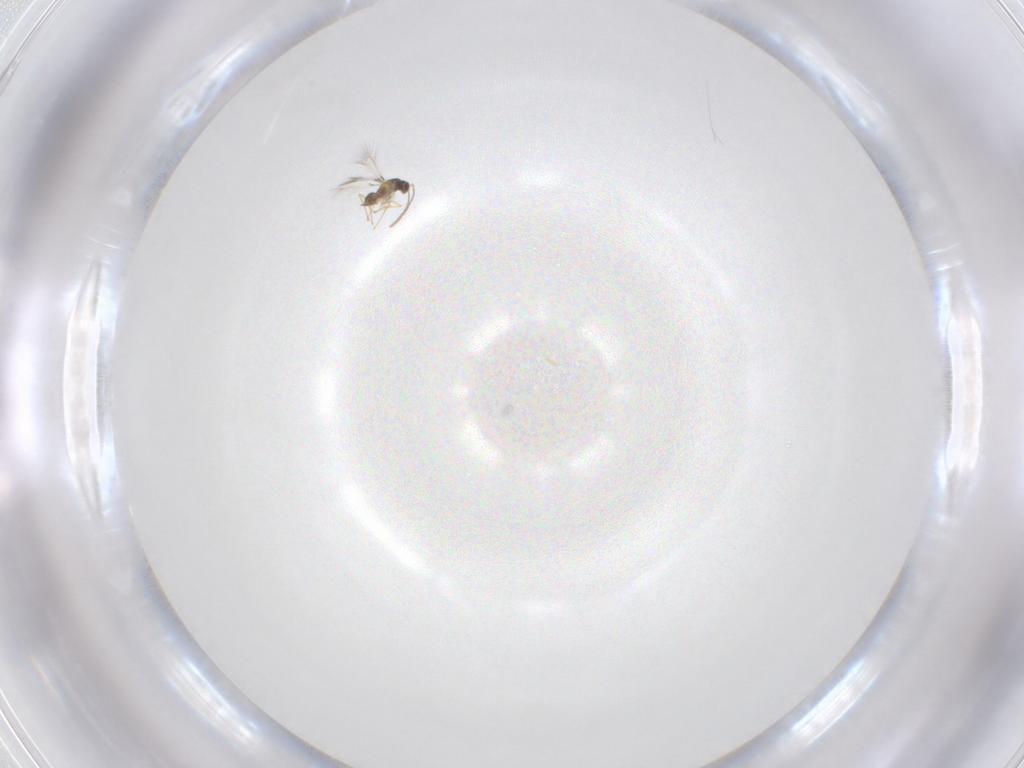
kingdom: Animalia
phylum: Arthropoda
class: Insecta
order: Hymenoptera
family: Mymaridae
